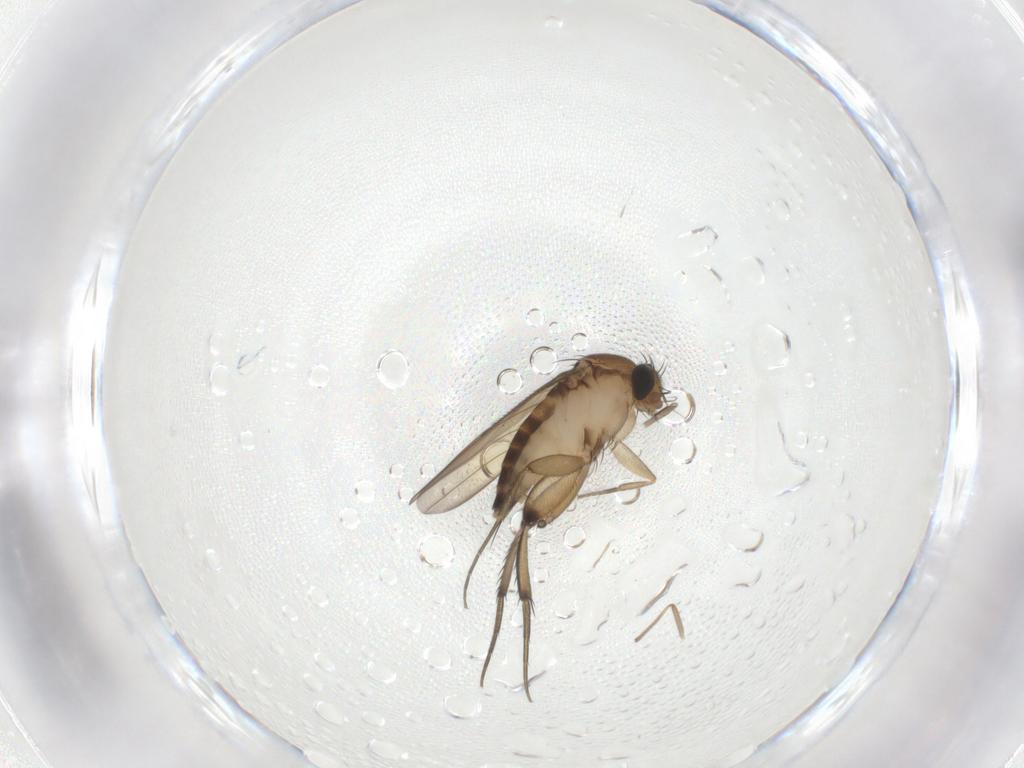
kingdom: Animalia
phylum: Arthropoda
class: Insecta
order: Diptera
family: Phoridae
